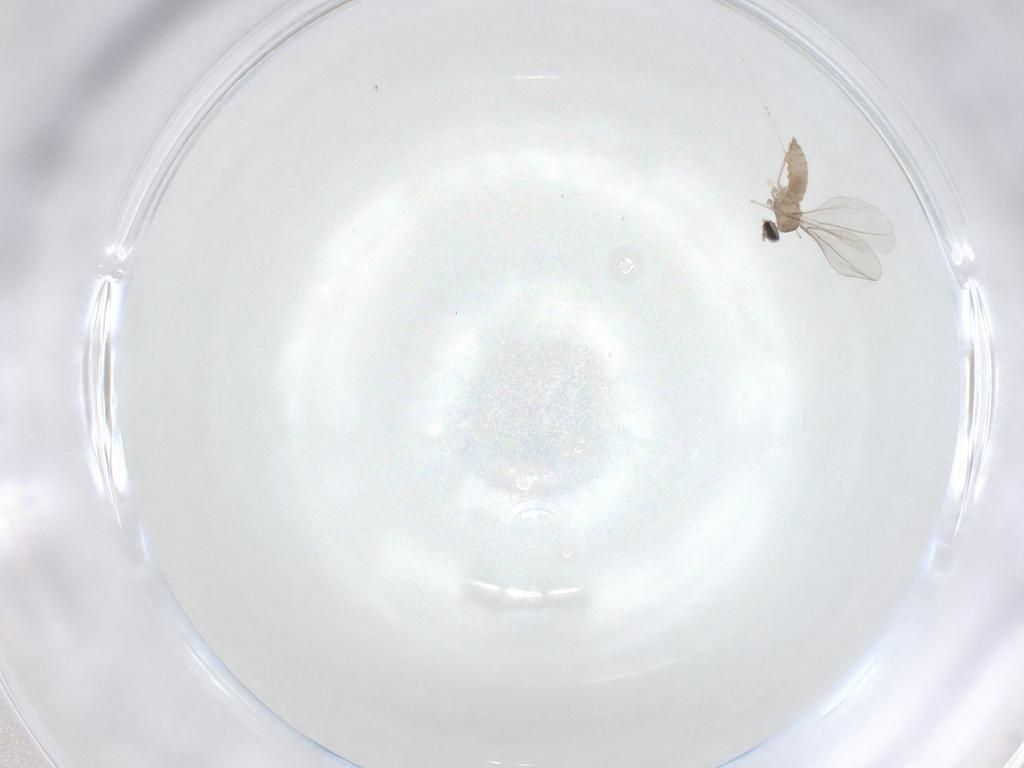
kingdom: Animalia
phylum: Arthropoda
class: Insecta
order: Diptera
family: Cecidomyiidae
